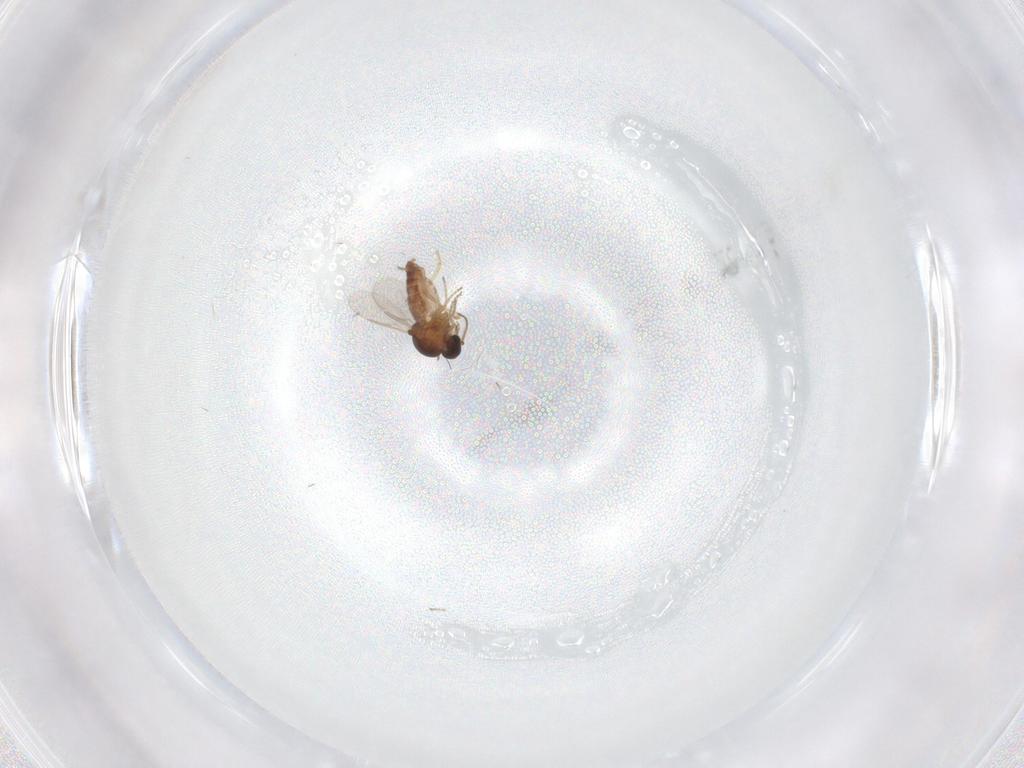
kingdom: Animalia
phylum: Arthropoda
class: Insecta
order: Diptera
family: Ceratopogonidae
